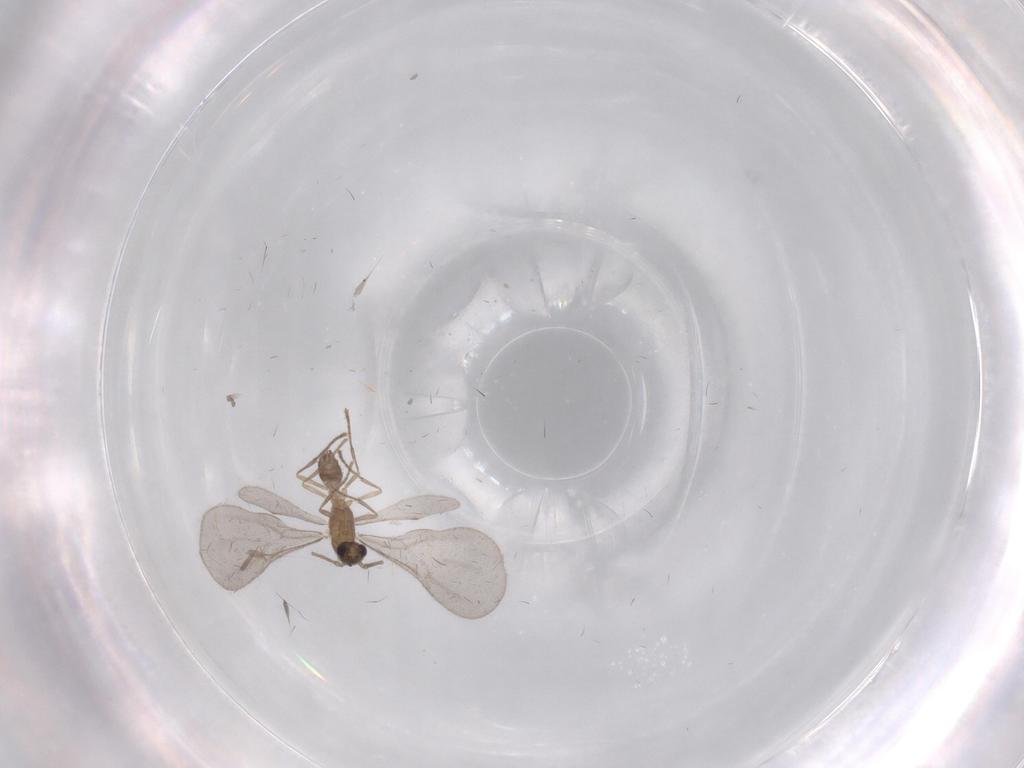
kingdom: Animalia
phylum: Arthropoda
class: Insecta
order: Hymenoptera
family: Formicidae
